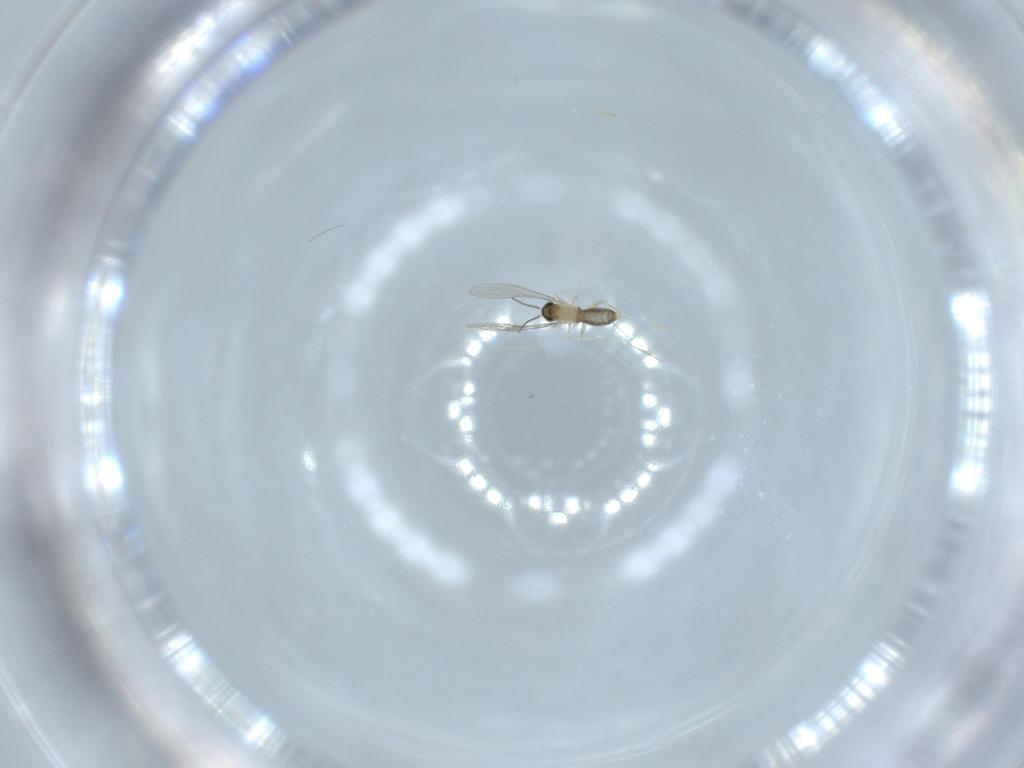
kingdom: Animalia
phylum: Arthropoda
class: Insecta
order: Diptera
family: Cecidomyiidae
